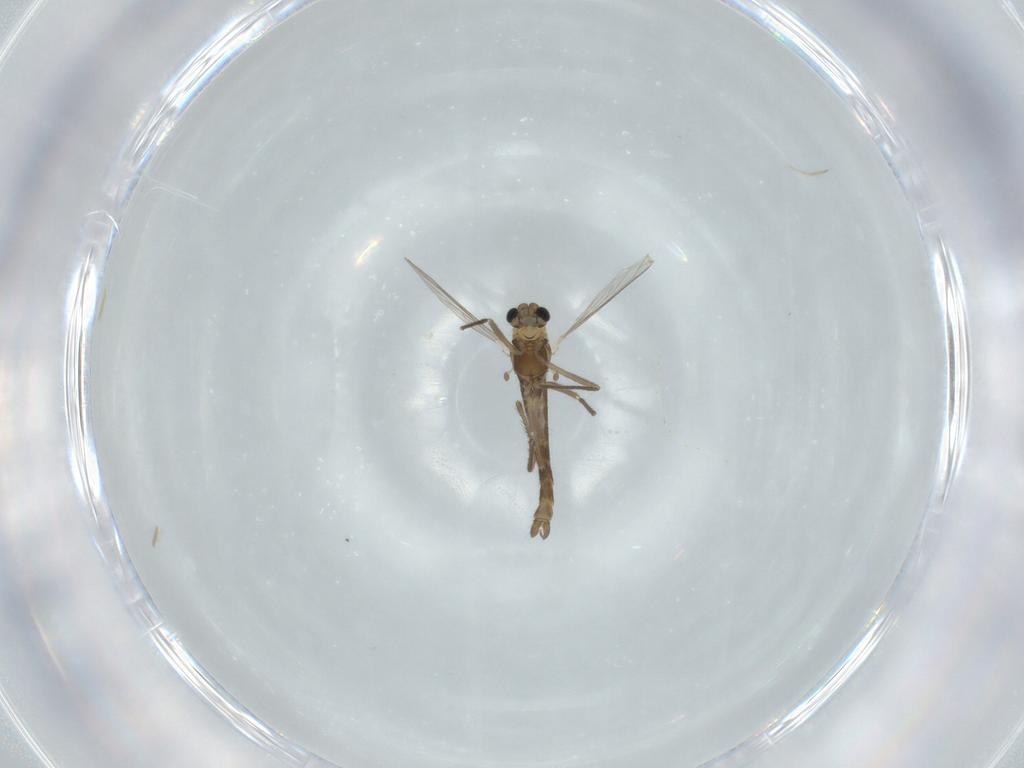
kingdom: Animalia
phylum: Arthropoda
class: Insecta
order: Diptera
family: Chironomidae
